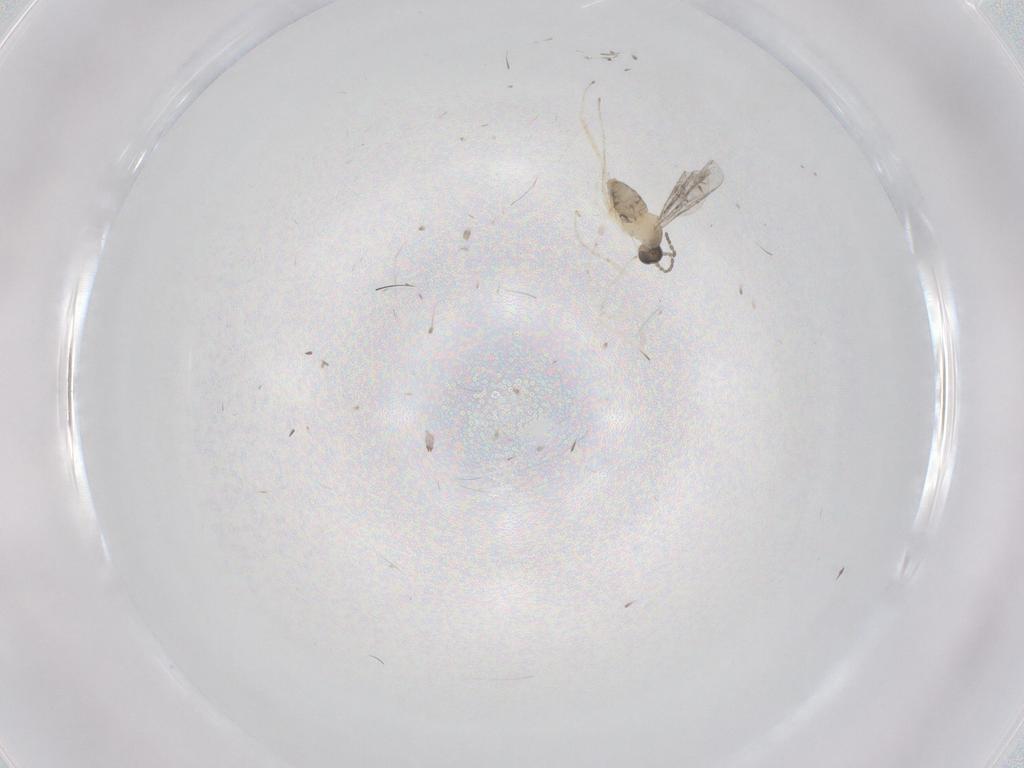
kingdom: Animalia
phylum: Arthropoda
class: Insecta
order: Diptera
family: Cecidomyiidae
